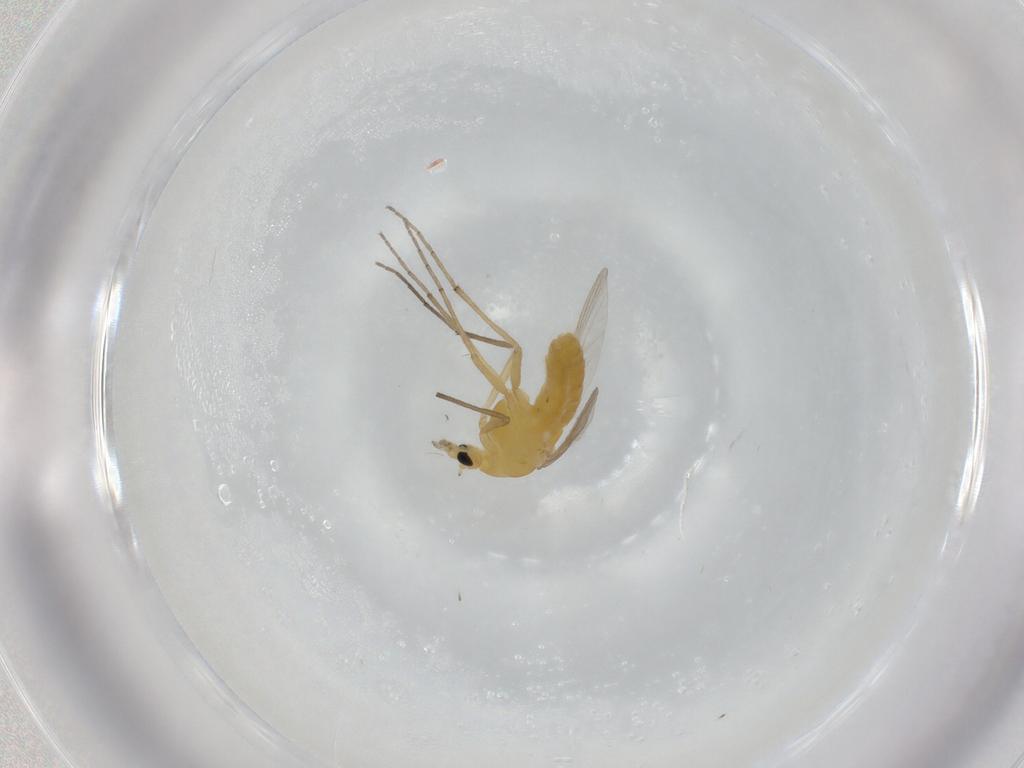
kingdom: Animalia
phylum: Arthropoda
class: Insecta
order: Diptera
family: Chironomidae
